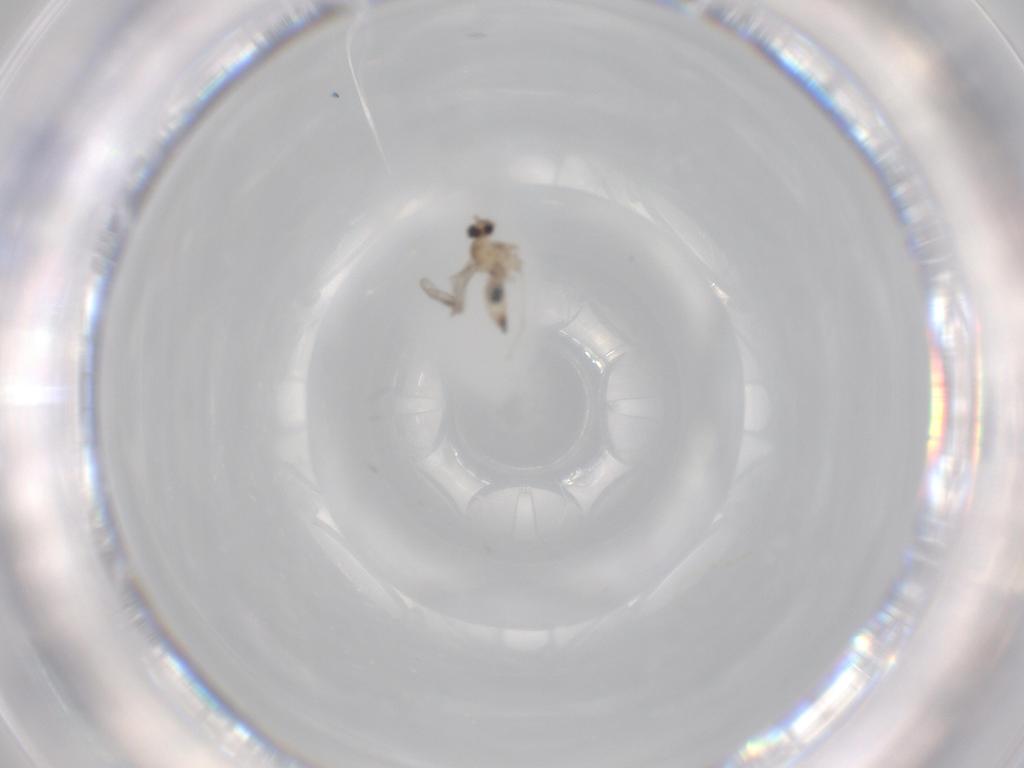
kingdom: Animalia
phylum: Arthropoda
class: Insecta
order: Diptera
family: Cecidomyiidae
